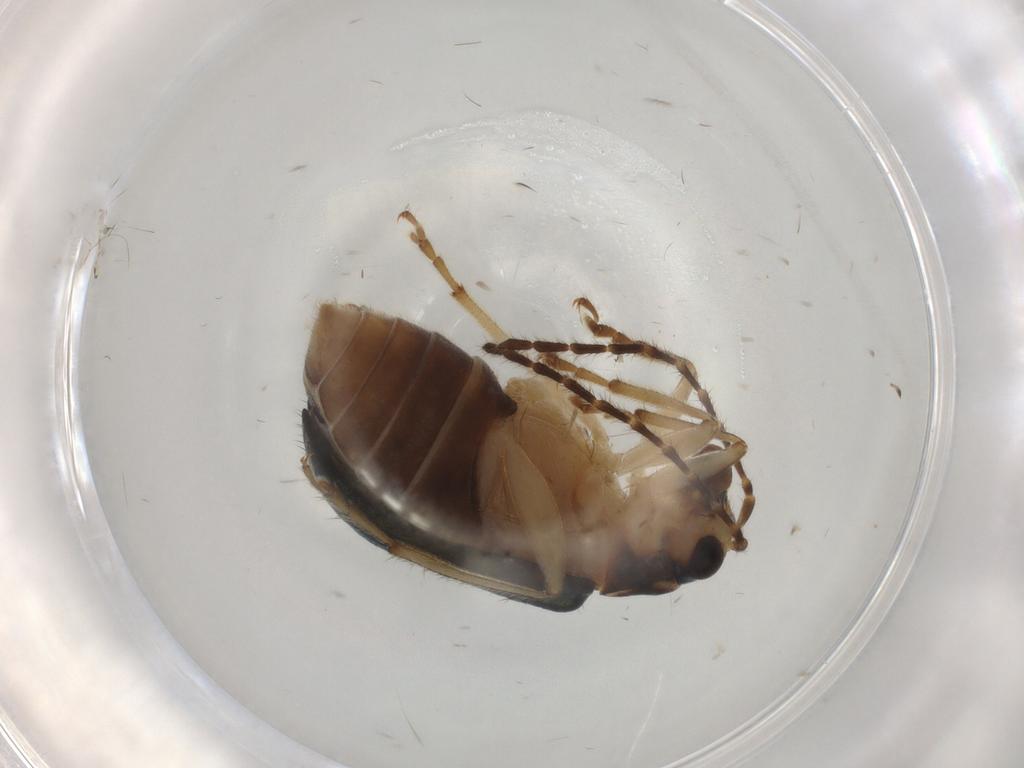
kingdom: Animalia
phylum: Arthropoda
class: Insecta
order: Coleoptera
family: Chrysomelidae
